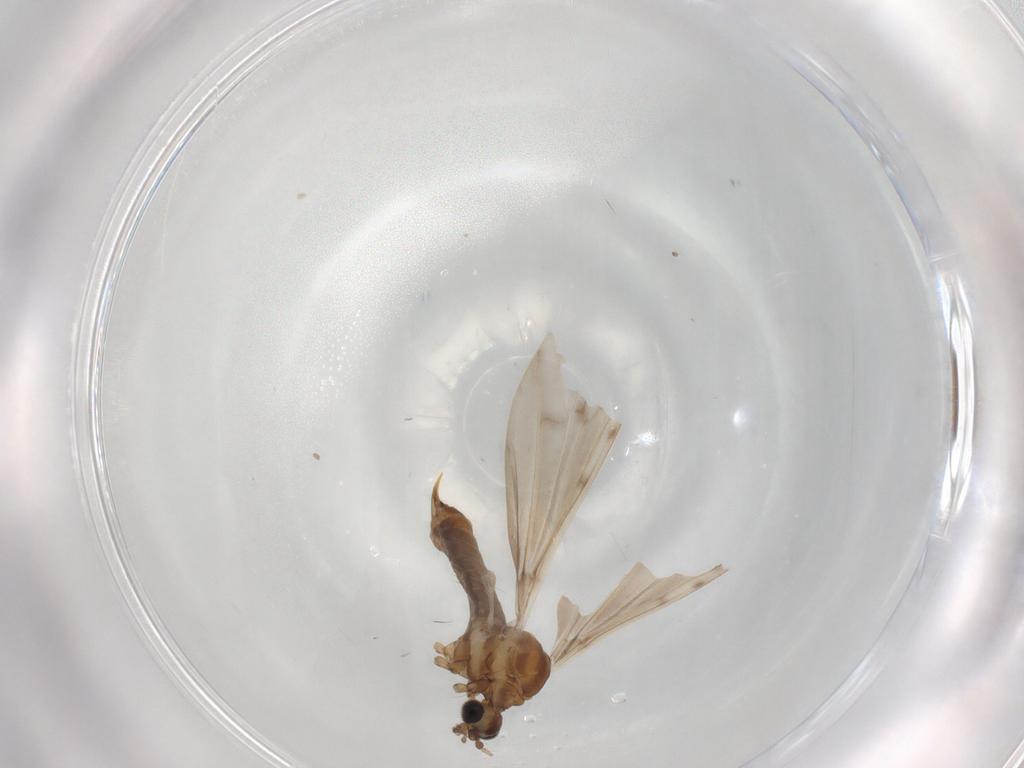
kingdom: Animalia
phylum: Arthropoda
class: Insecta
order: Diptera
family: Limoniidae
